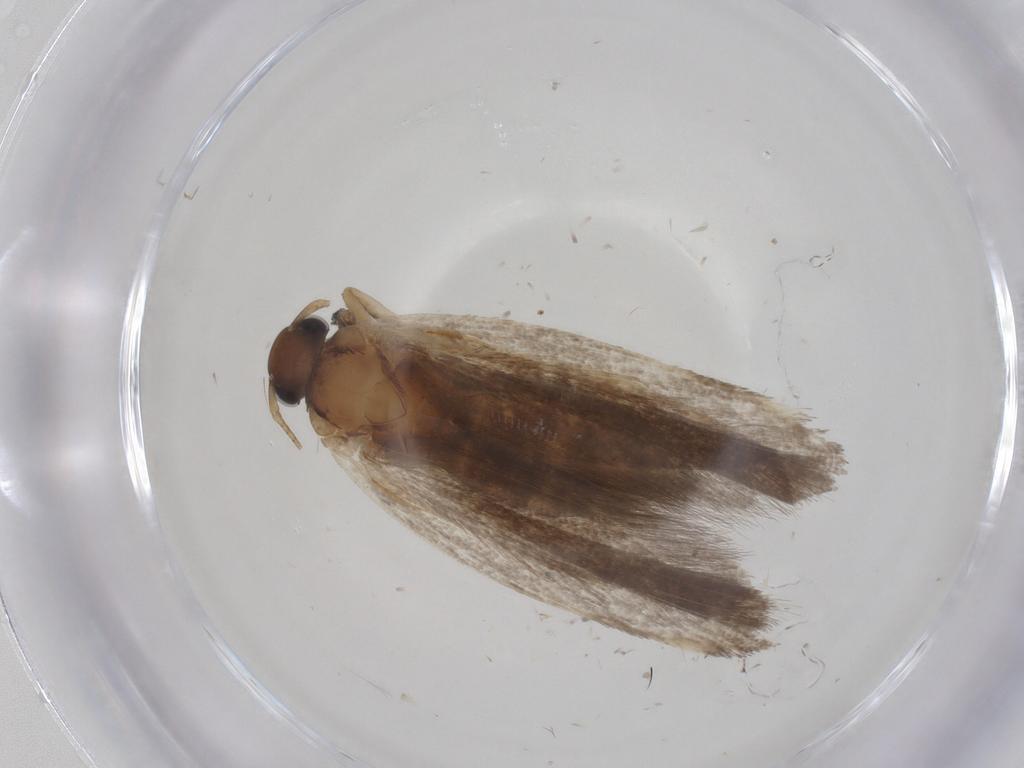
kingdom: Animalia
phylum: Arthropoda
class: Insecta
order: Lepidoptera
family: Gelechiidae
